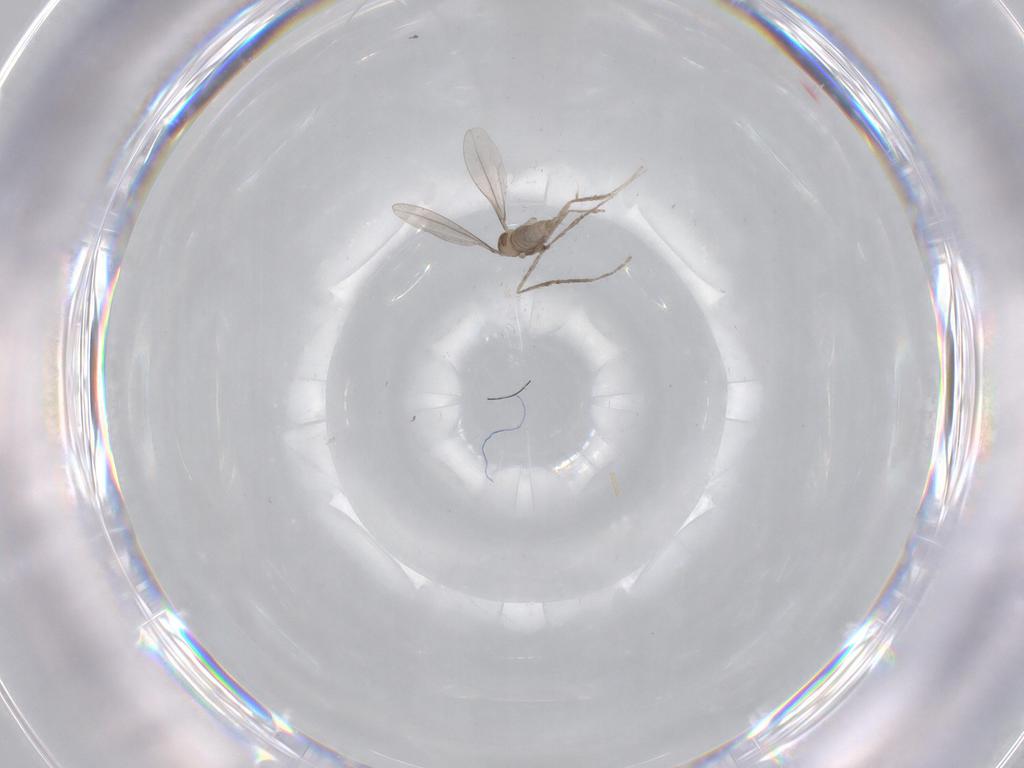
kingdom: Animalia
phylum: Arthropoda
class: Insecta
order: Diptera
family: Cecidomyiidae
